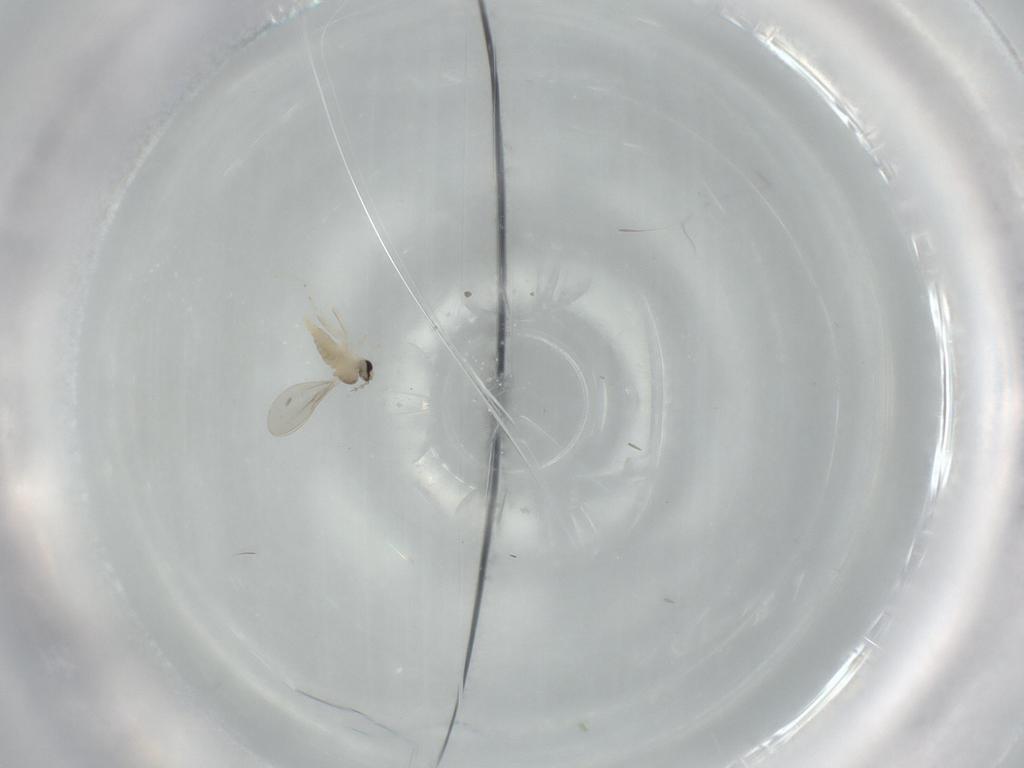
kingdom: Animalia
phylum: Arthropoda
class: Insecta
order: Diptera
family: Cecidomyiidae
